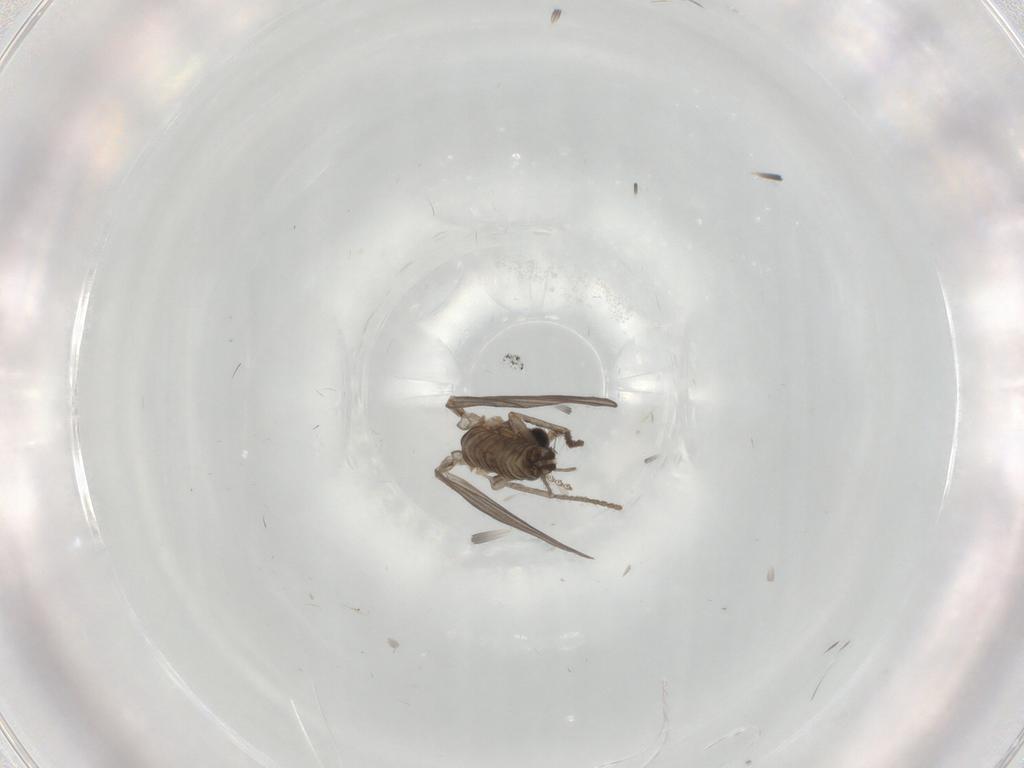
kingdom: Animalia
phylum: Arthropoda
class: Insecta
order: Diptera
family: Psychodidae
